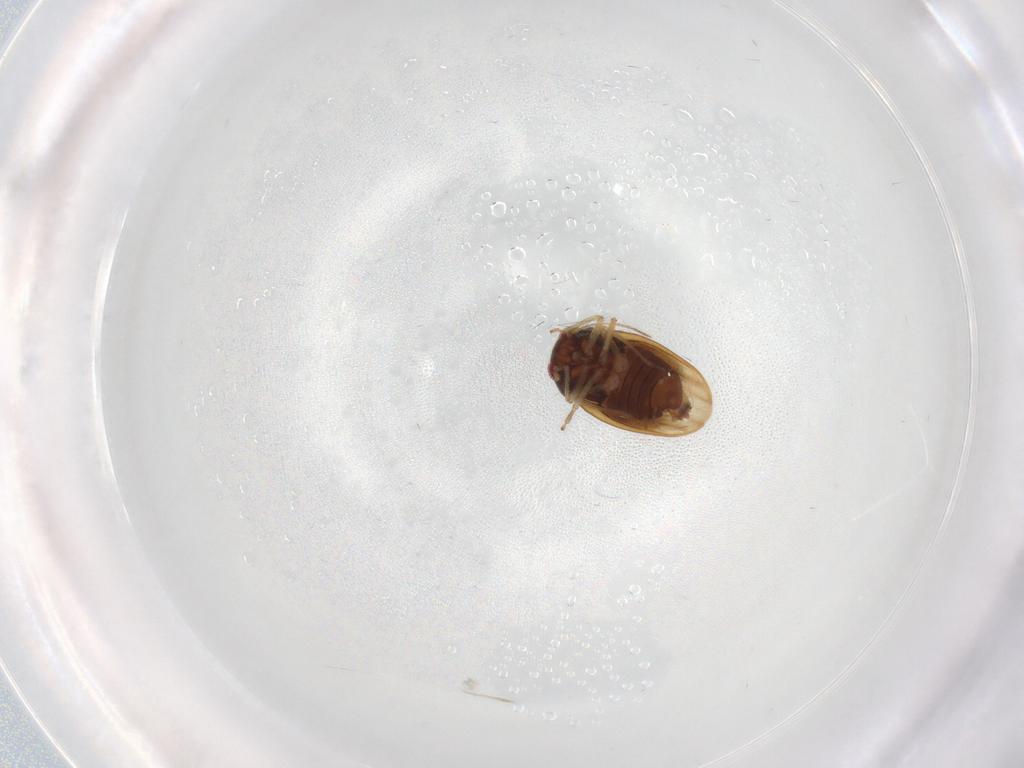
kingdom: Animalia
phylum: Arthropoda
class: Insecta
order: Hemiptera
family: Schizopteridae
